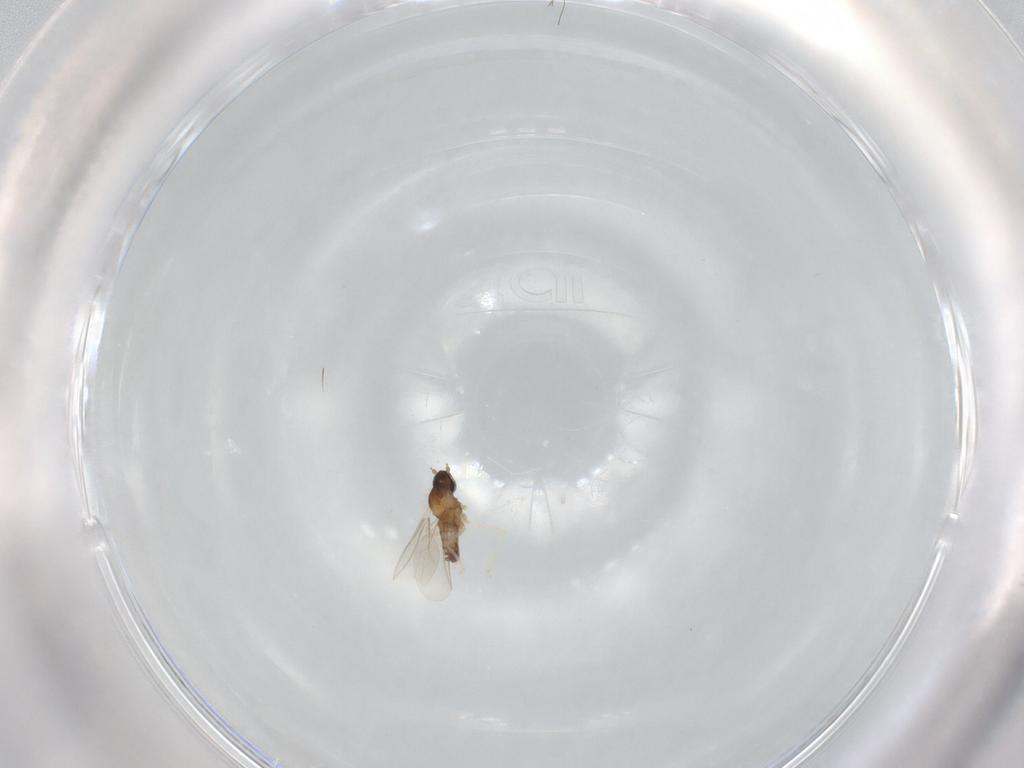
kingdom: Animalia
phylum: Arthropoda
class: Insecta
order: Diptera
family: Cecidomyiidae
